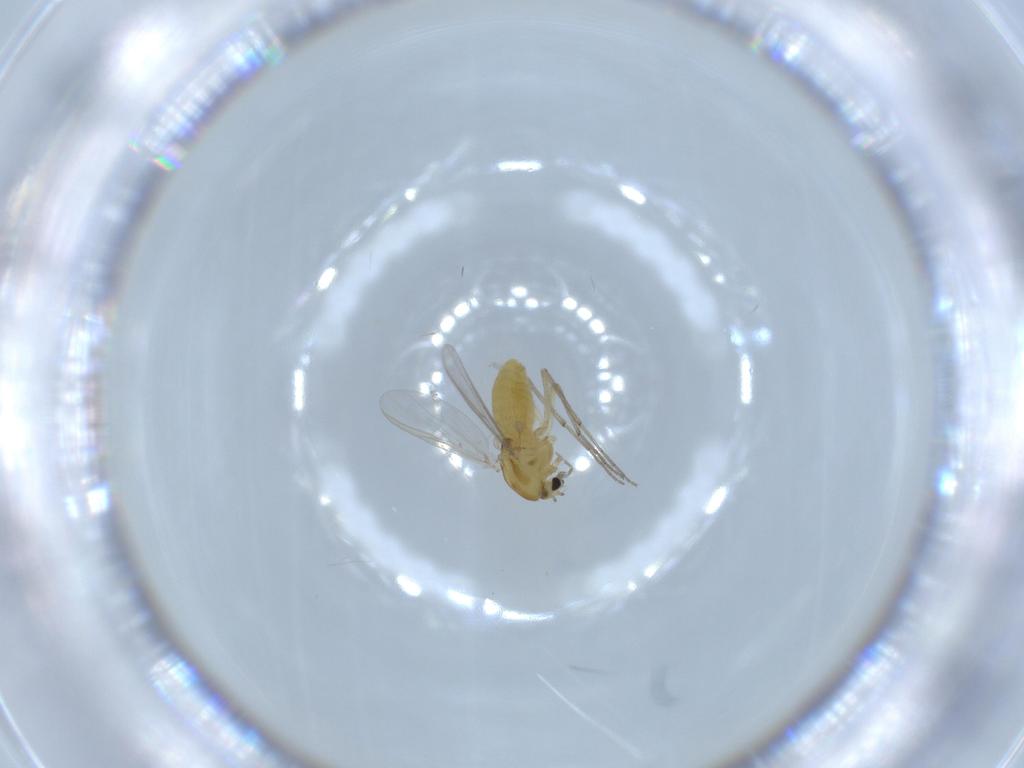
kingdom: Animalia
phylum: Arthropoda
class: Insecta
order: Diptera
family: Chironomidae
